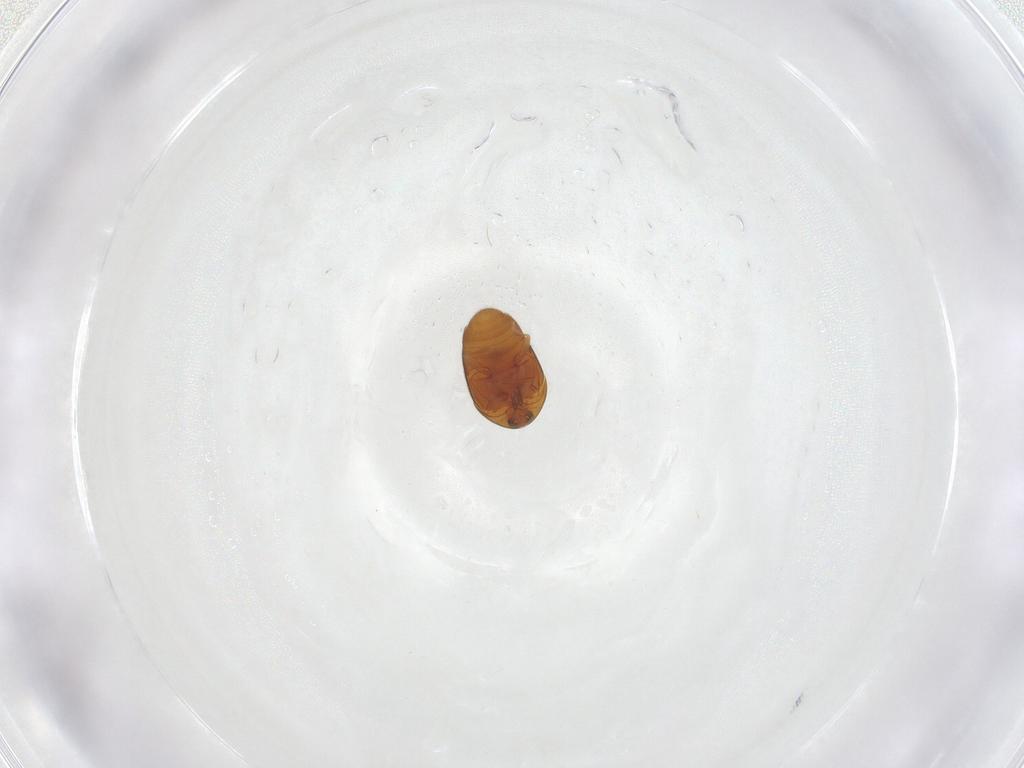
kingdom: Animalia
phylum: Arthropoda
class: Insecta
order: Coleoptera
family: Corylophidae
